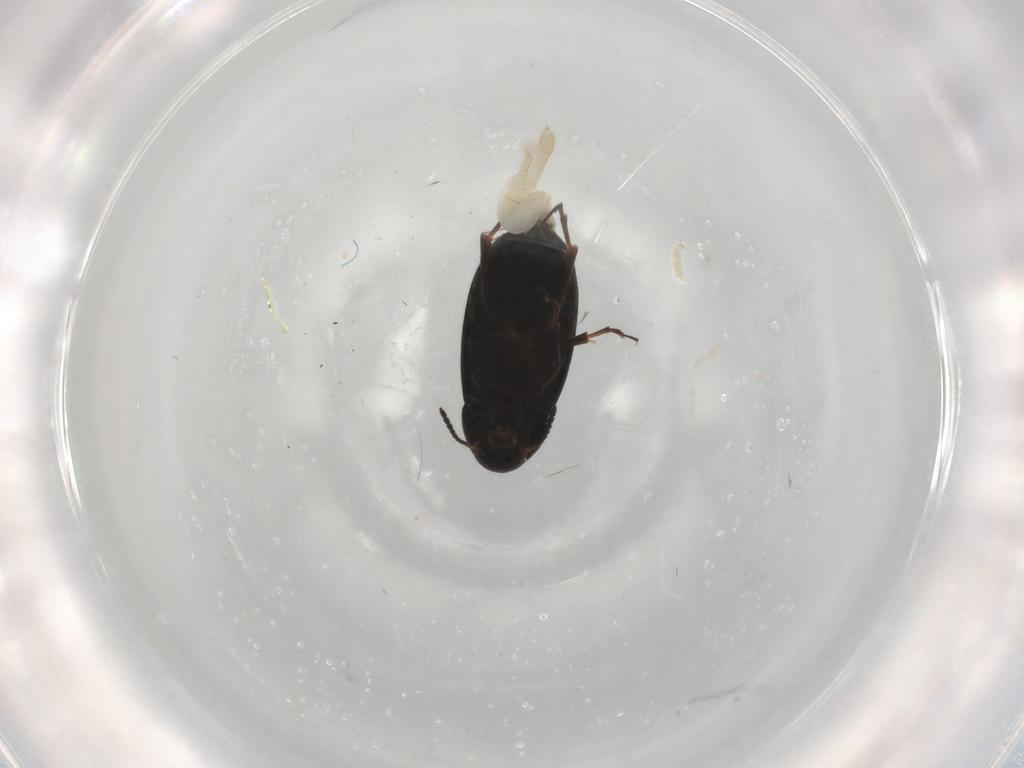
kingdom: Animalia
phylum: Arthropoda
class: Insecta
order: Coleoptera
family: Scraptiidae
